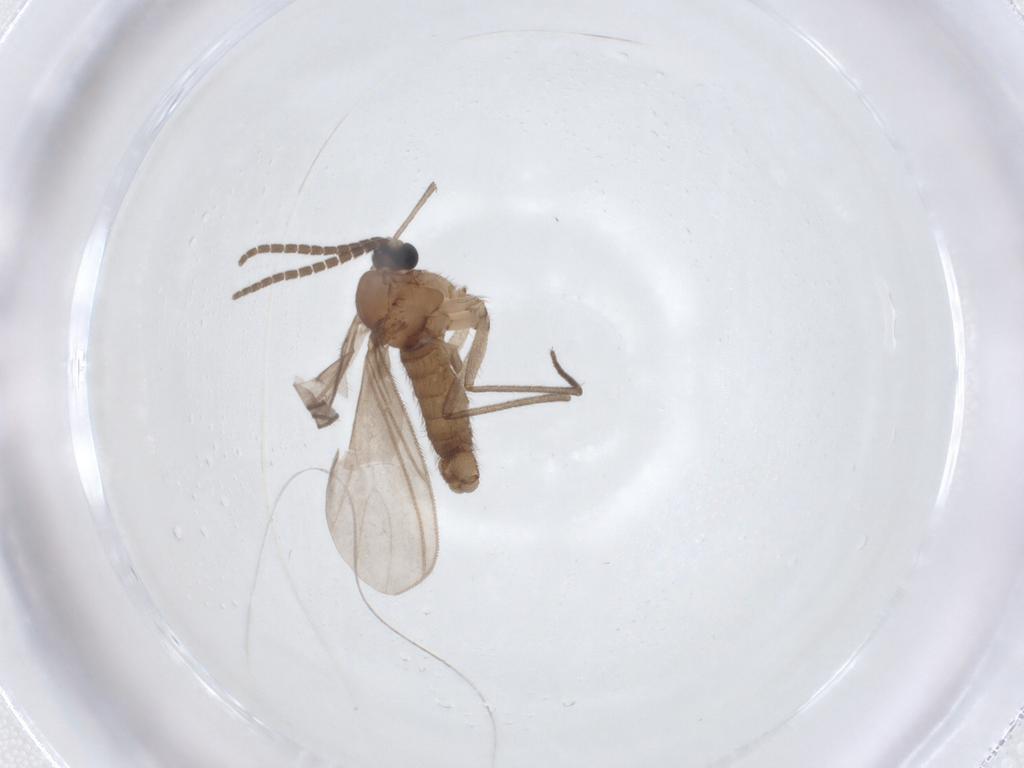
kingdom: Animalia
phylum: Arthropoda
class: Insecta
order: Diptera
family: Sciaridae
